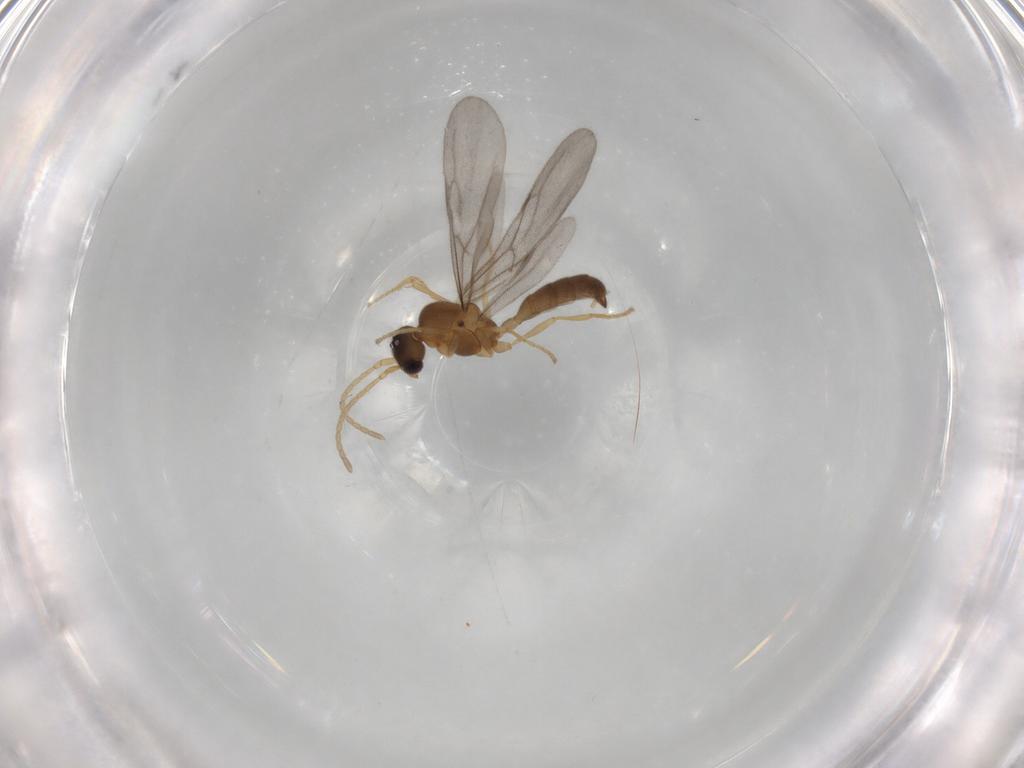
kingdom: Animalia
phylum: Arthropoda
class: Insecta
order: Hymenoptera
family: Formicidae
